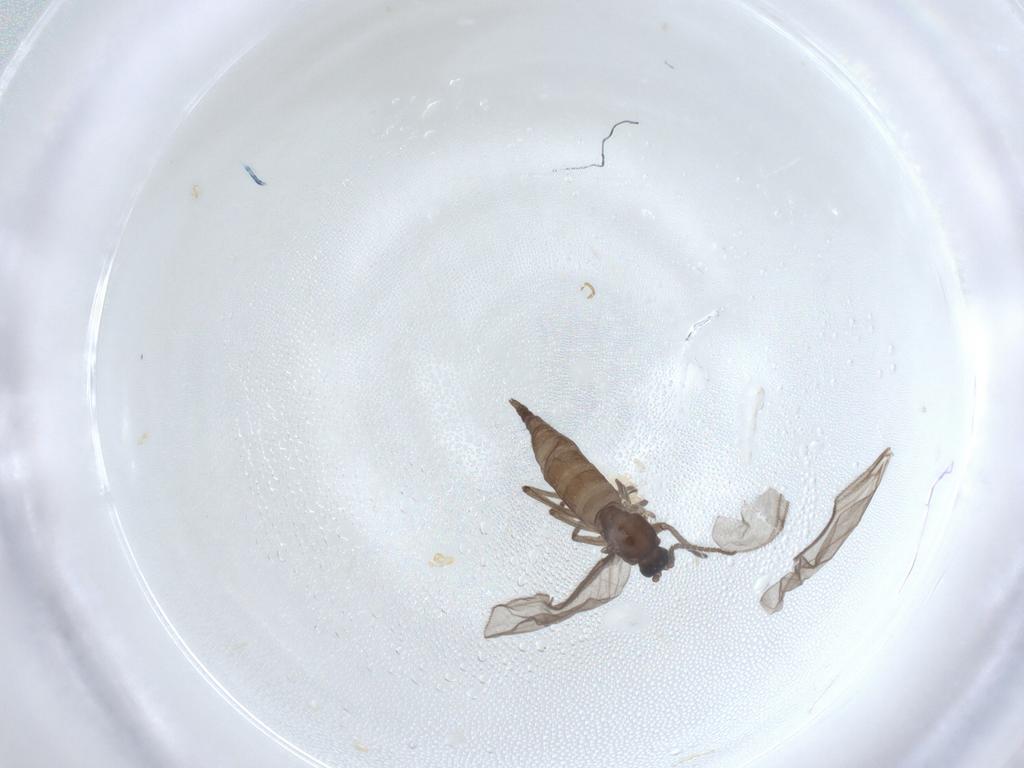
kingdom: Animalia
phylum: Arthropoda
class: Insecta
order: Diptera
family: Sciaridae
